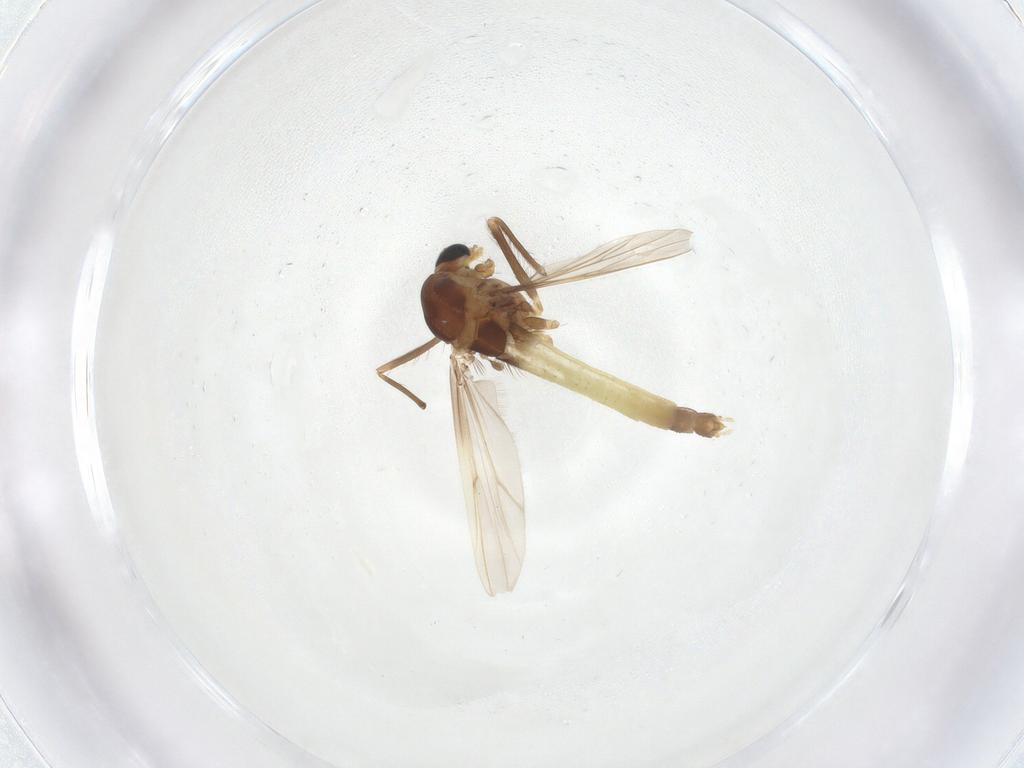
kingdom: Animalia
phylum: Arthropoda
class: Insecta
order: Diptera
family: Chironomidae
